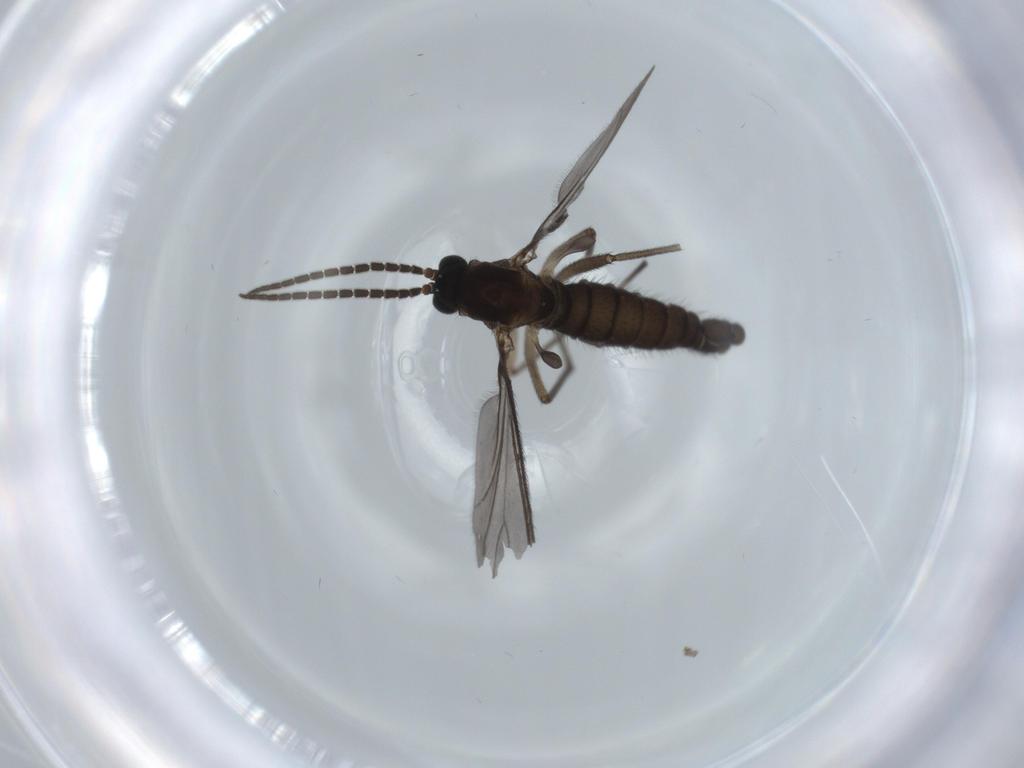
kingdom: Animalia
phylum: Arthropoda
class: Insecta
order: Diptera
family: Sciaridae
